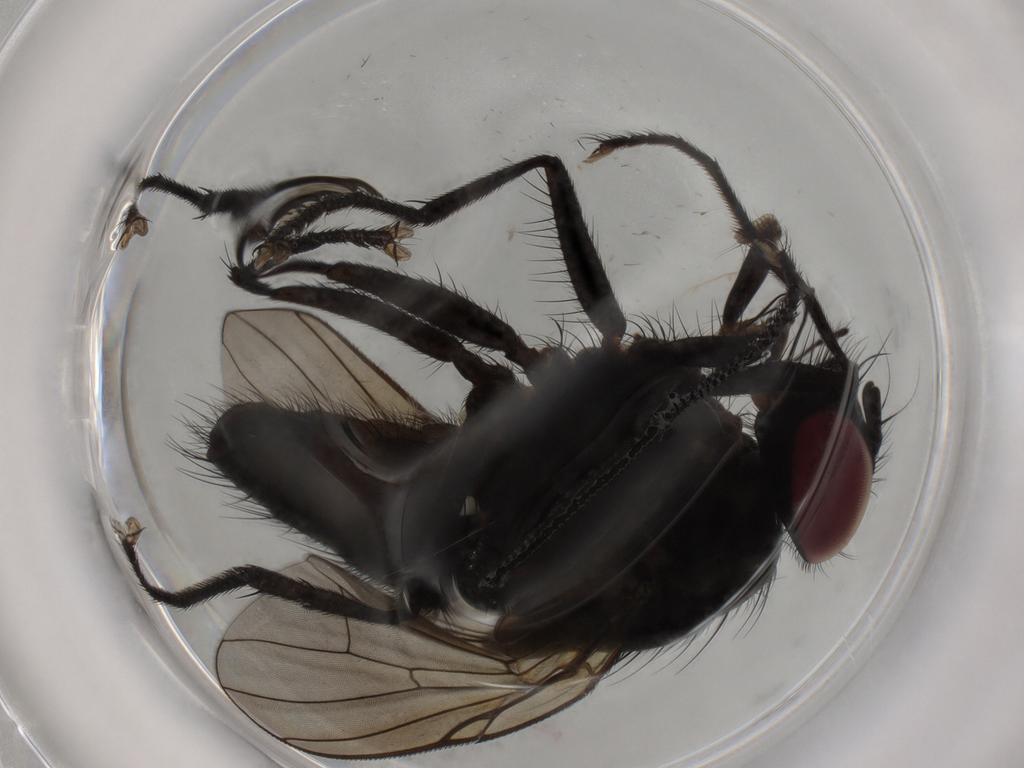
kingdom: Animalia
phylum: Arthropoda
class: Insecta
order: Diptera
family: Muscidae
